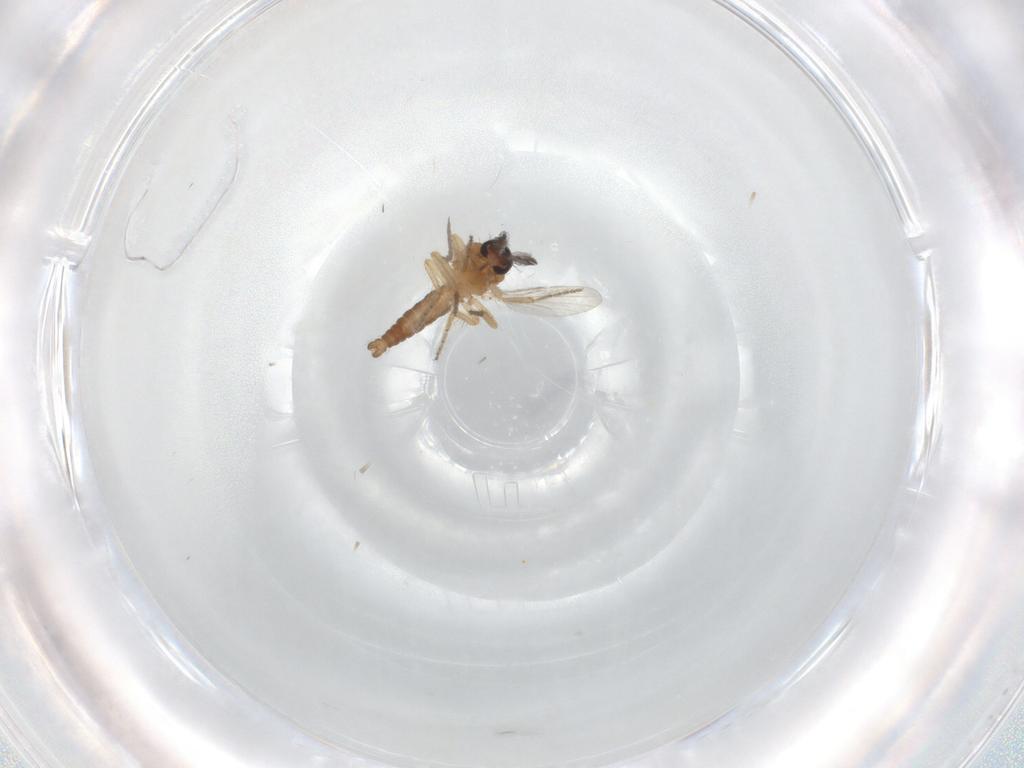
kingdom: Animalia
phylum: Arthropoda
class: Insecta
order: Diptera
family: Ceratopogonidae
